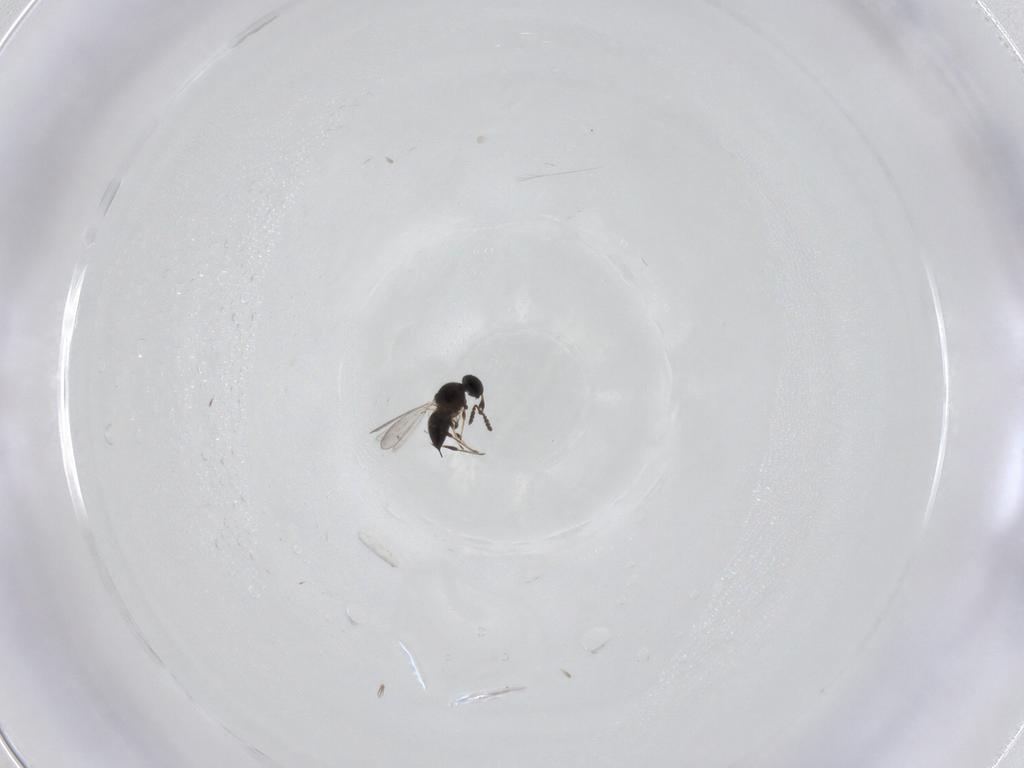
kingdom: Animalia
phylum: Arthropoda
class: Insecta
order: Hymenoptera
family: Platygastridae
